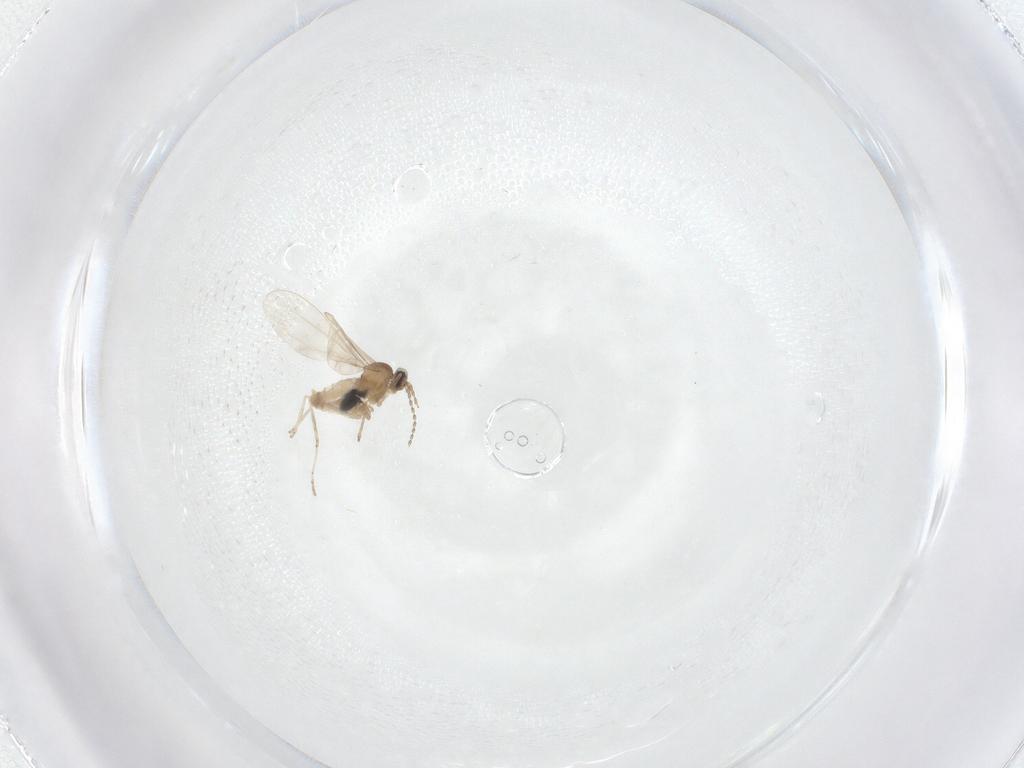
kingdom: Animalia
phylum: Arthropoda
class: Insecta
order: Diptera
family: Cecidomyiidae
